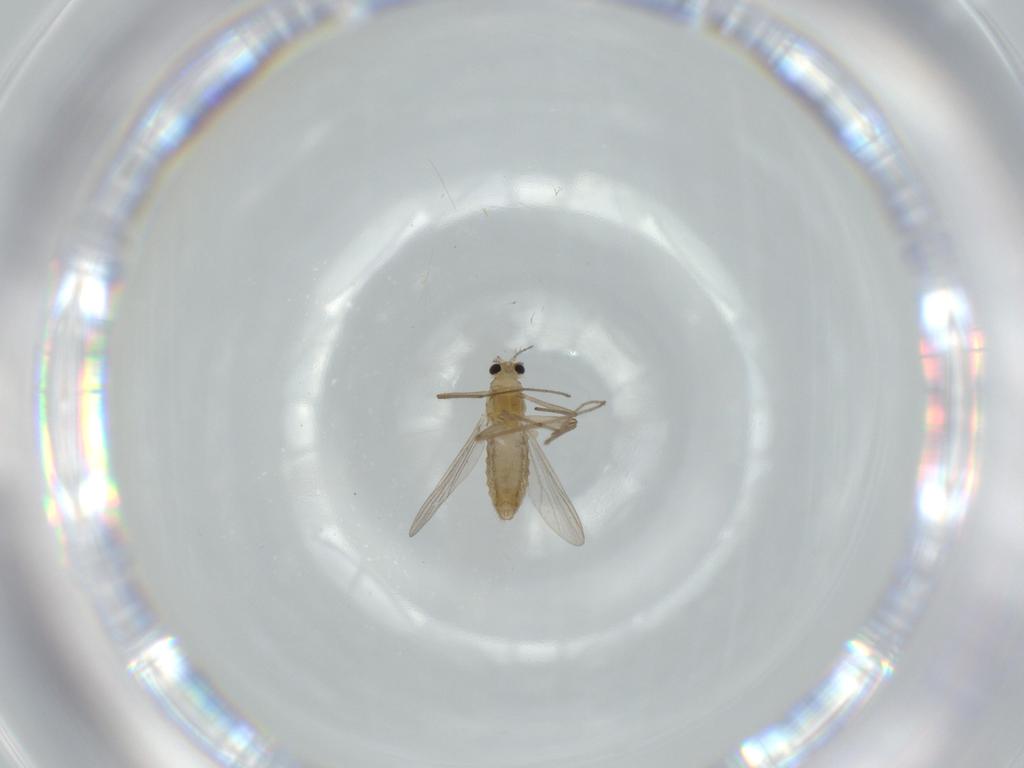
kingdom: Animalia
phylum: Arthropoda
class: Insecta
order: Diptera
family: Chironomidae
